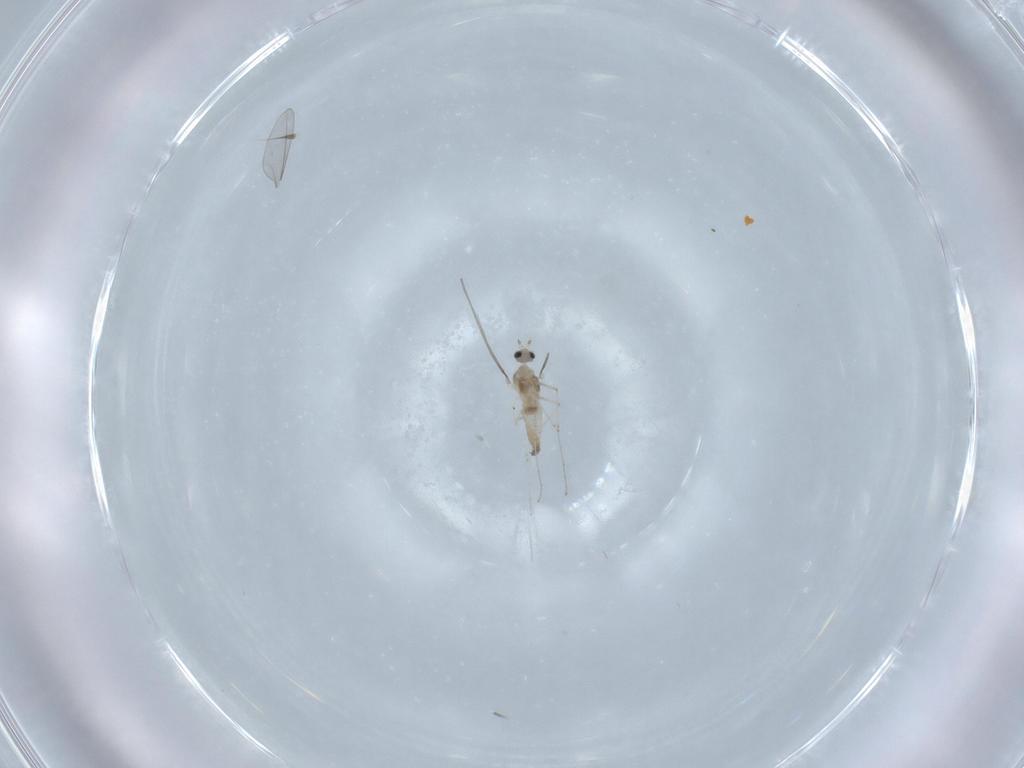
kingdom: Animalia
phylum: Arthropoda
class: Insecta
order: Diptera
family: Cecidomyiidae
